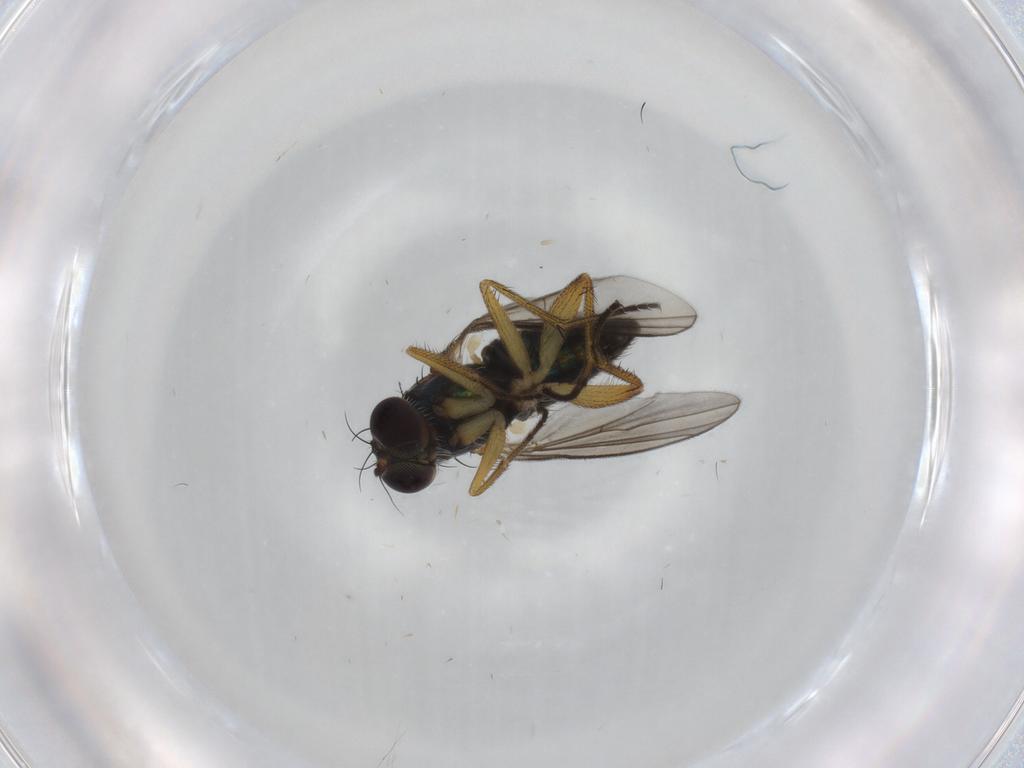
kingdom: Animalia
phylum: Arthropoda
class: Insecta
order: Diptera
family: Dolichopodidae
